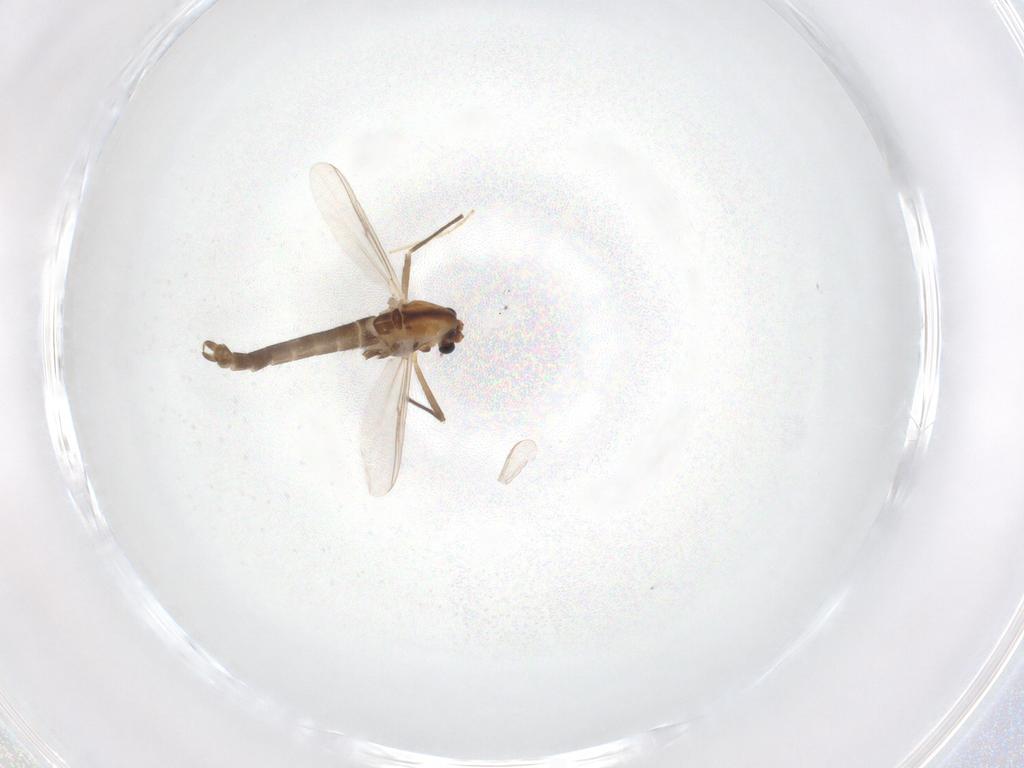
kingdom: Animalia
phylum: Arthropoda
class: Insecta
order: Diptera
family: Chironomidae
